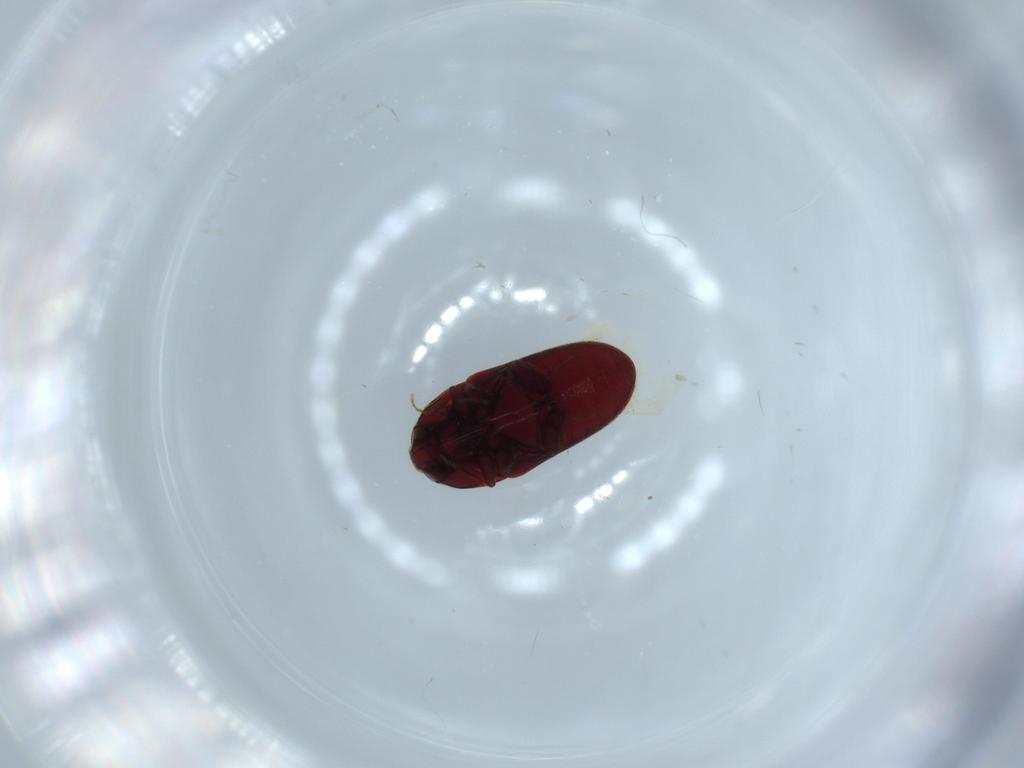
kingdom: Animalia
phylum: Arthropoda
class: Insecta
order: Coleoptera
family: Throscidae
